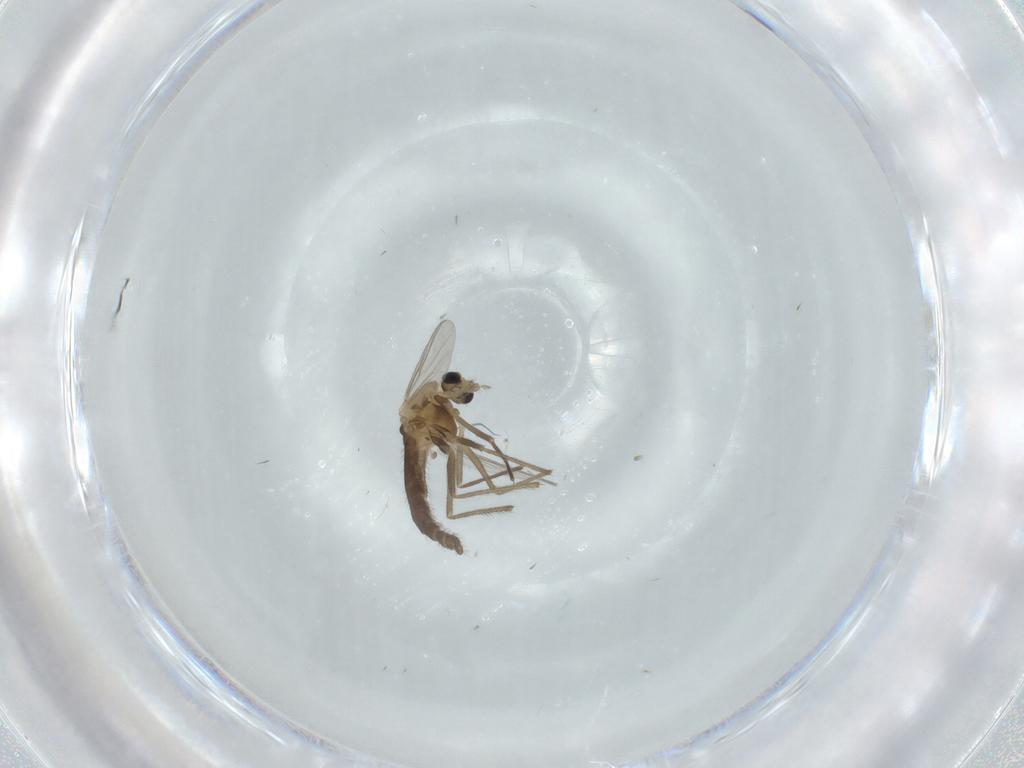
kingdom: Animalia
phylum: Arthropoda
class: Insecta
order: Diptera
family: Chironomidae
